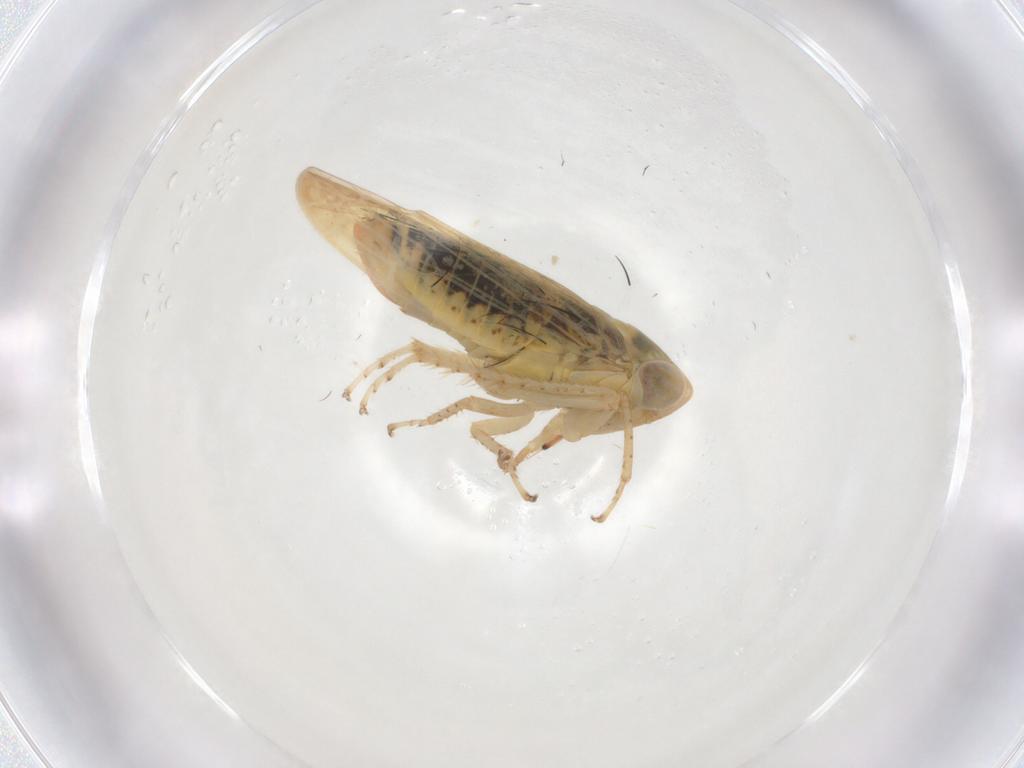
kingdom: Animalia
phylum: Arthropoda
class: Insecta
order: Hemiptera
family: Cicadellidae
